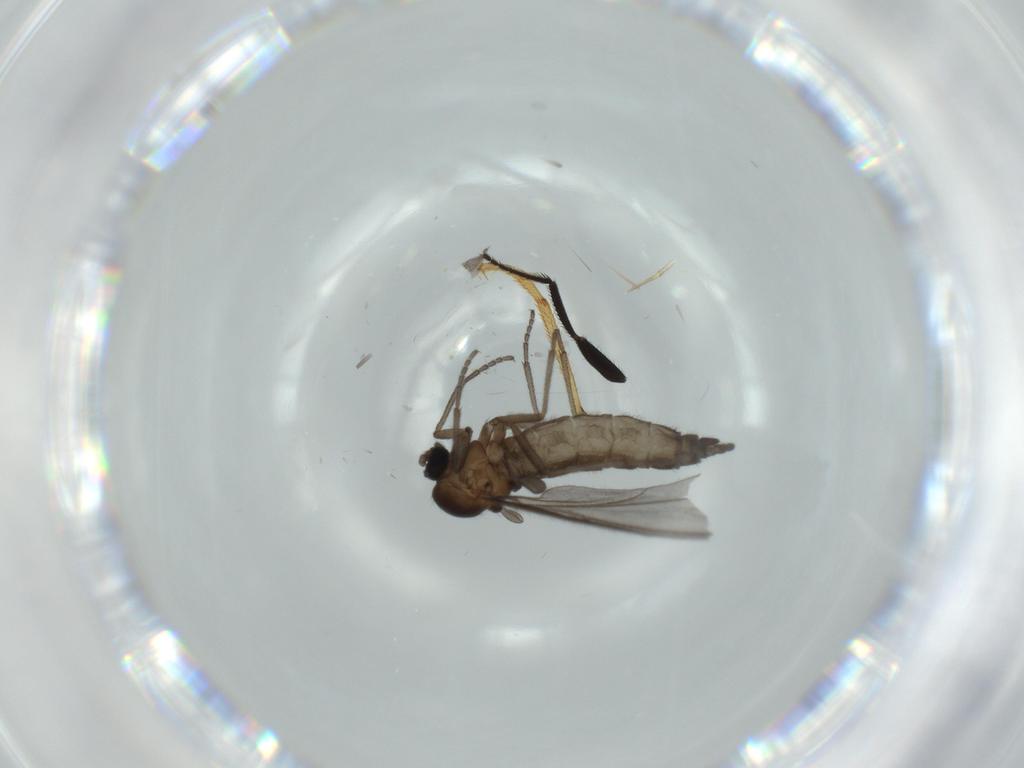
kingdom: Animalia
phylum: Arthropoda
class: Insecta
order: Diptera
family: Sciaridae
